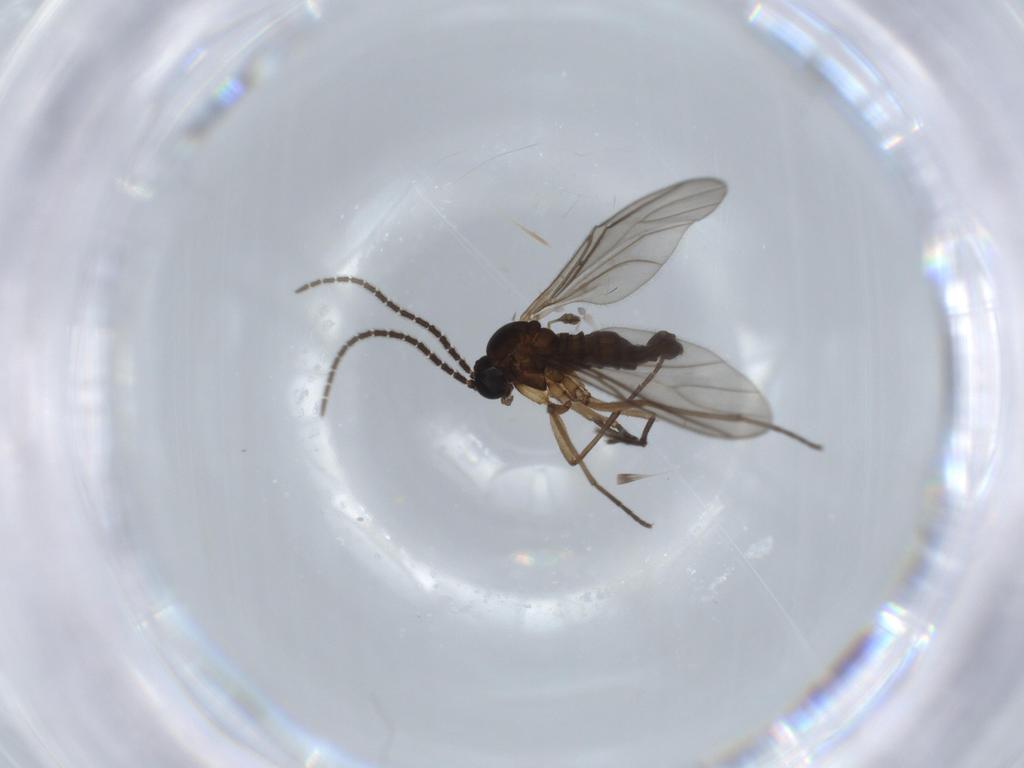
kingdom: Animalia
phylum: Arthropoda
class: Insecta
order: Diptera
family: Sciaridae
